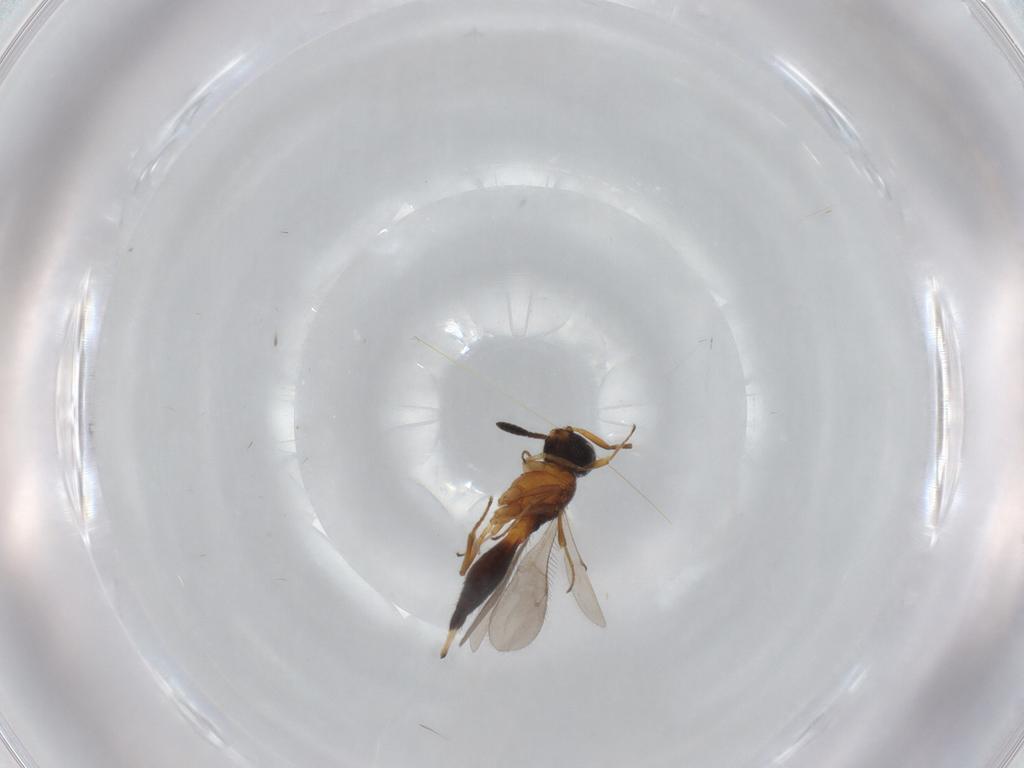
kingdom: Animalia
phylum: Arthropoda
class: Insecta
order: Hymenoptera
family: Scelionidae
